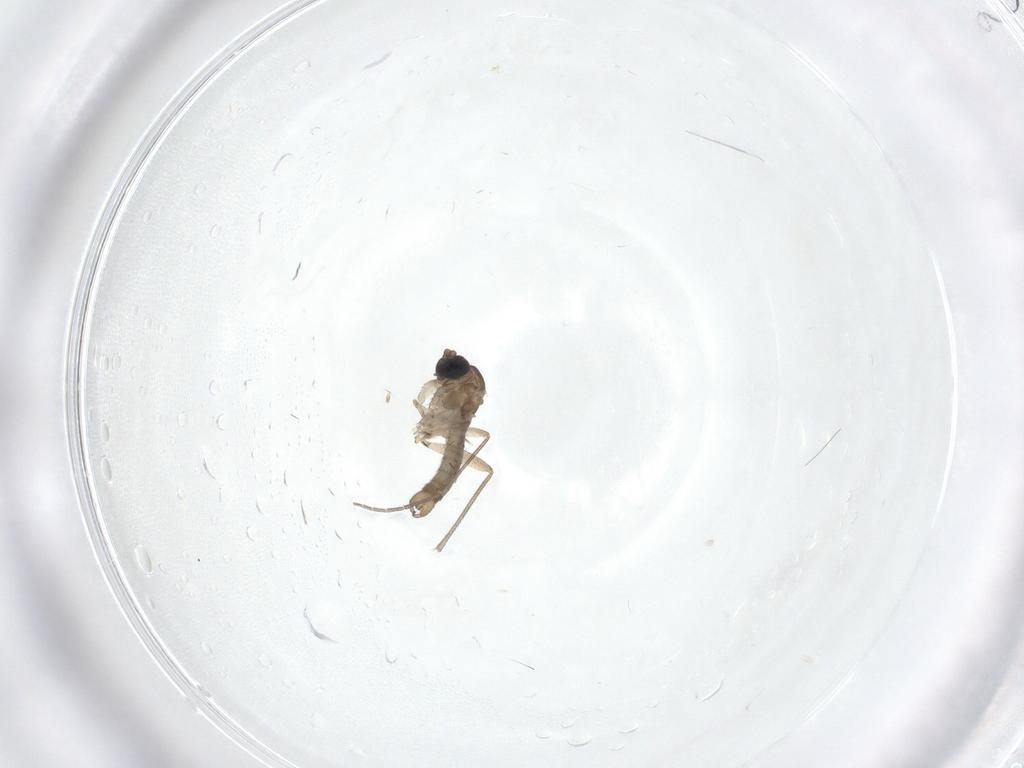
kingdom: Animalia
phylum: Arthropoda
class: Insecta
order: Diptera
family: Sciaridae
